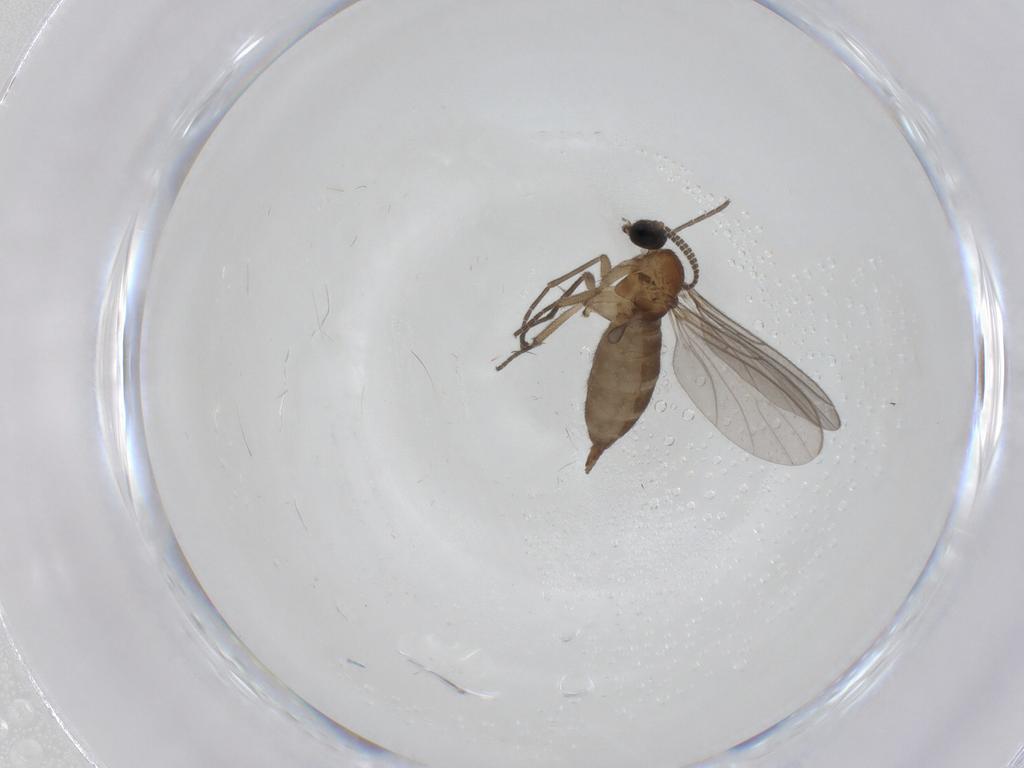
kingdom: Animalia
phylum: Arthropoda
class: Insecta
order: Diptera
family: Sciaridae
